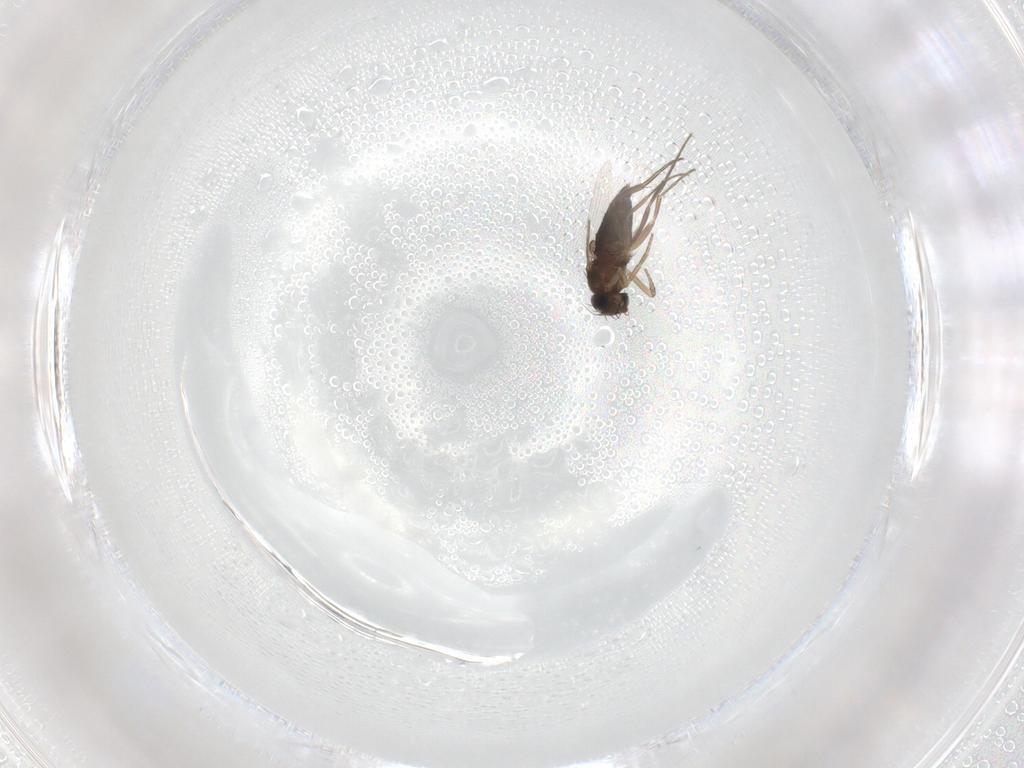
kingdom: Animalia
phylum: Arthropoda
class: Insecta
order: Diptera
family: Phoridae
